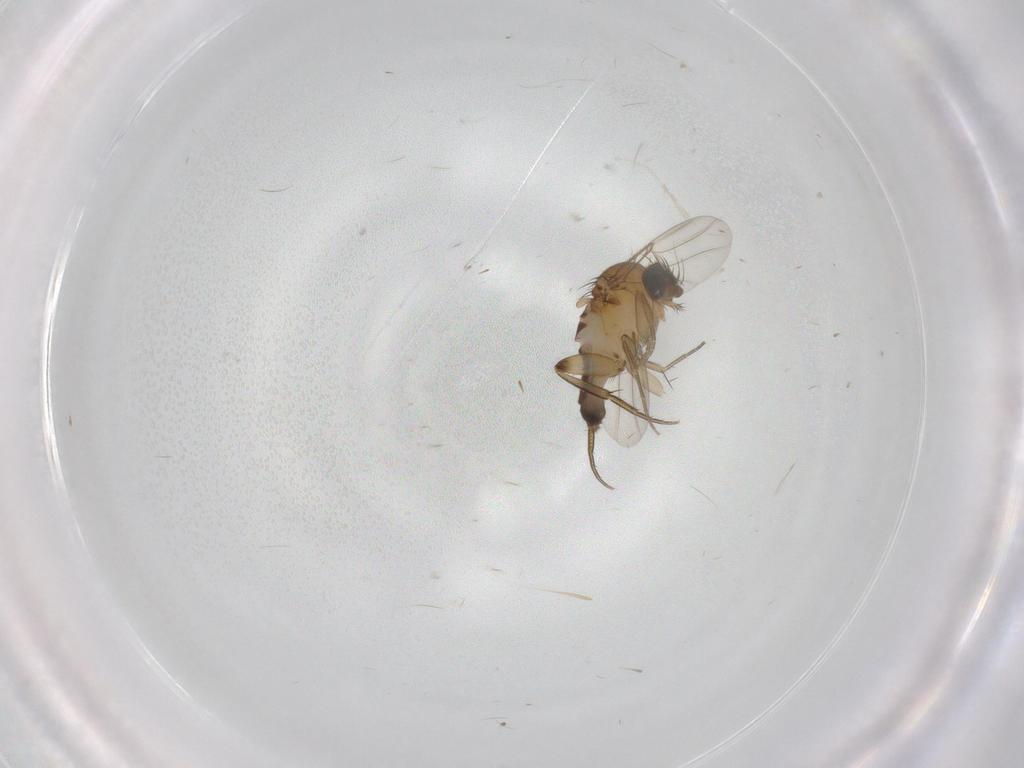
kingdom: Animalia
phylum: Arthropoda
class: Insecta
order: Diptera
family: Phoridae
